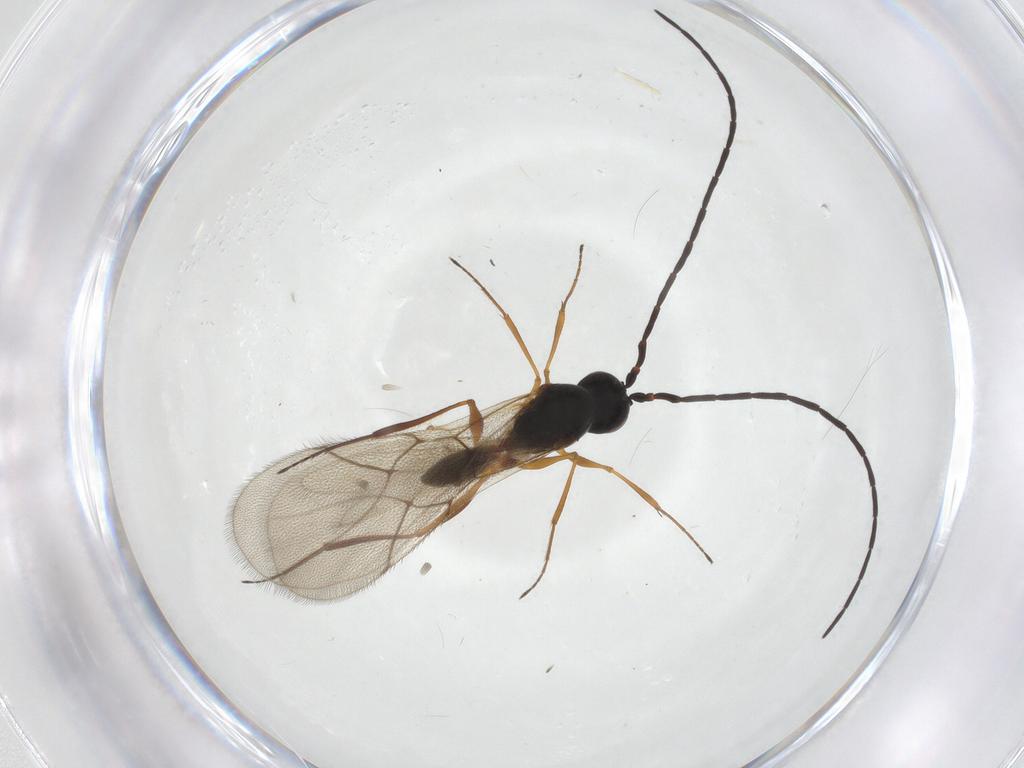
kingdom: Animalia
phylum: Arthropoda
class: Insecta
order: Hymenoptera
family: Figitidae
